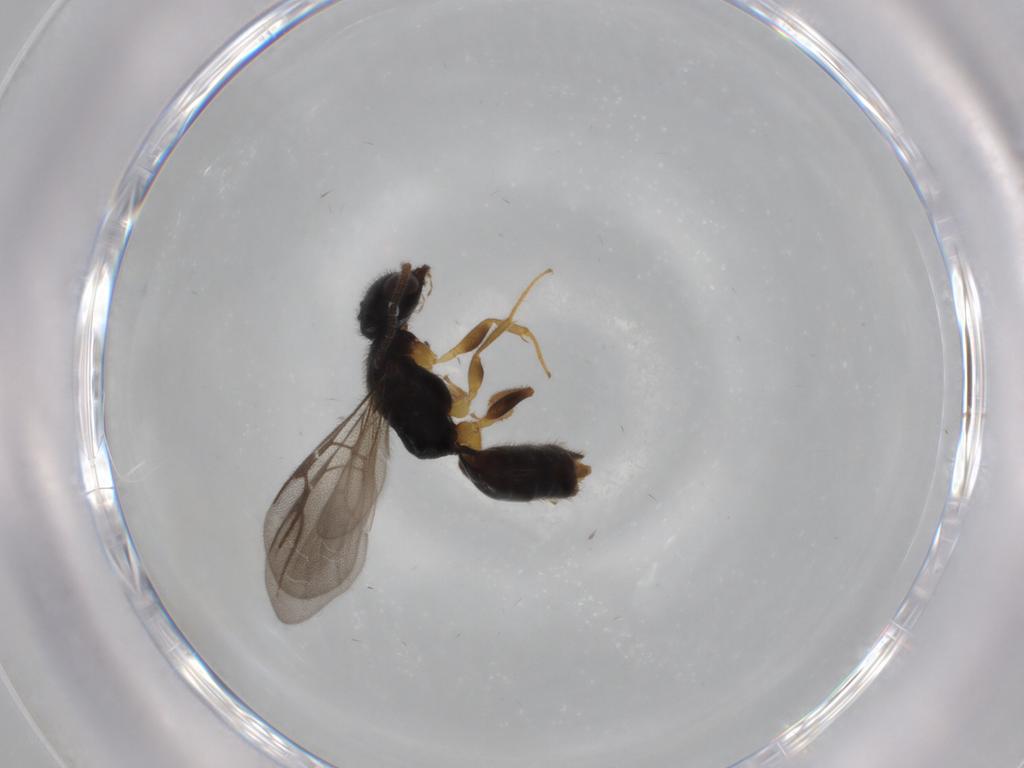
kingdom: Animalia
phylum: Arthropoda
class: Insecta
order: Hymenoptera
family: Bethylidae
